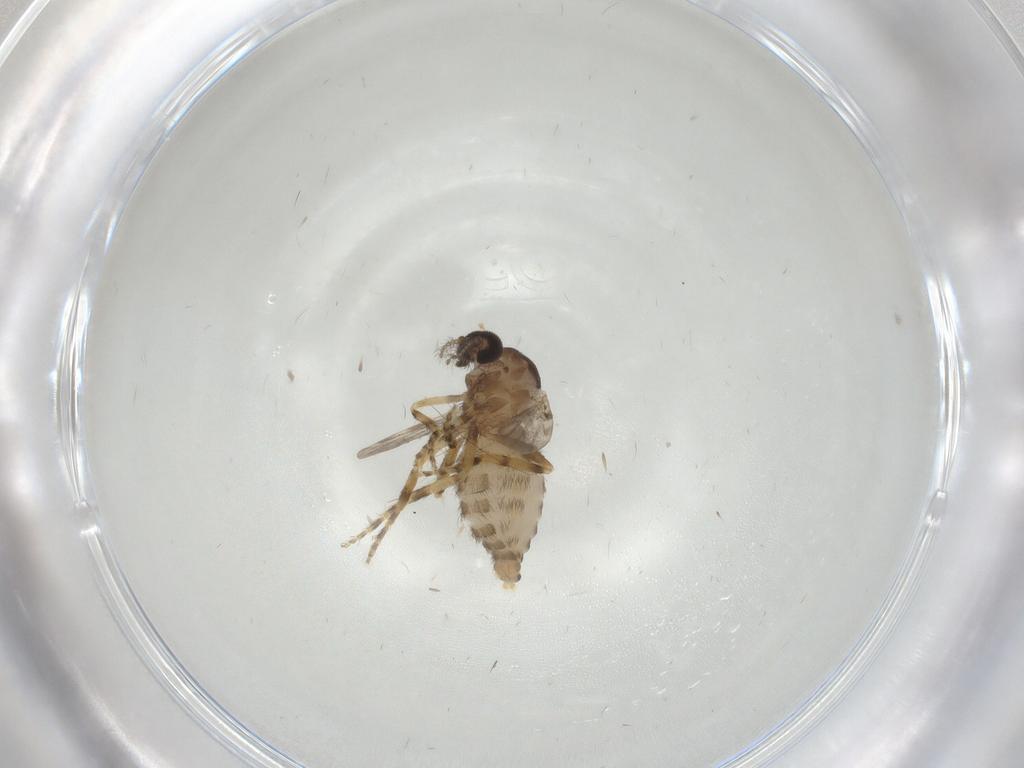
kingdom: Animalia
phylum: Arthropoda
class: Insecta
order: Diptera
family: Ceratopogonidae
